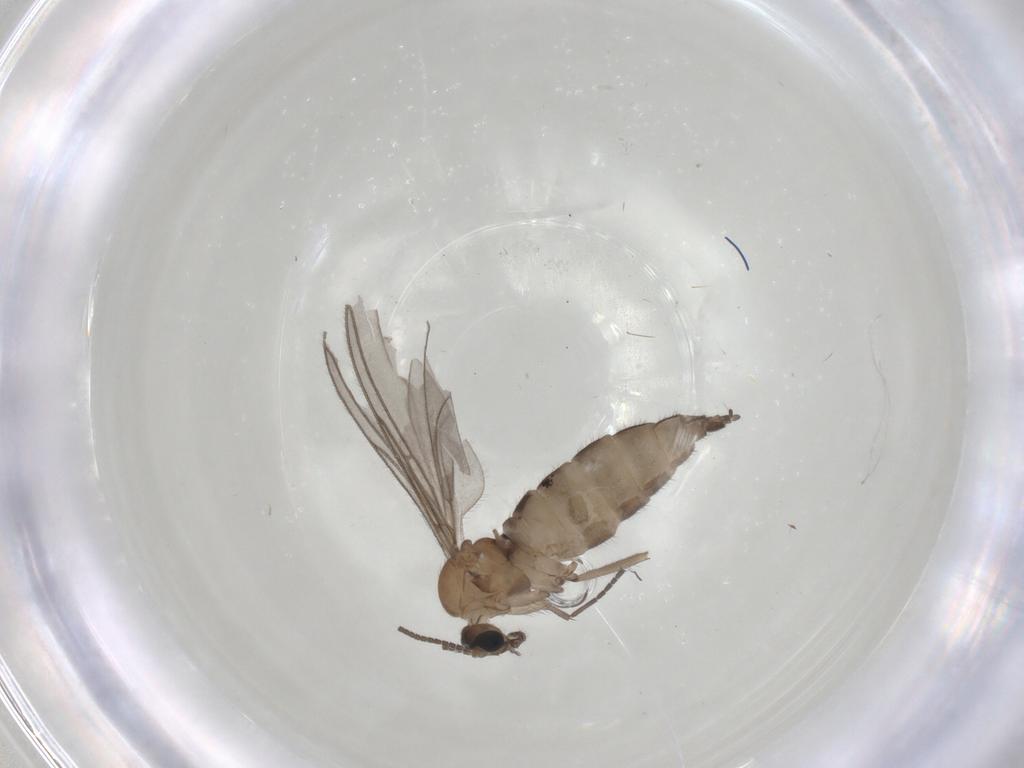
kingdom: Animalia
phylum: Arthropoda
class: Insecta
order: Diptera
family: Sciaridae
